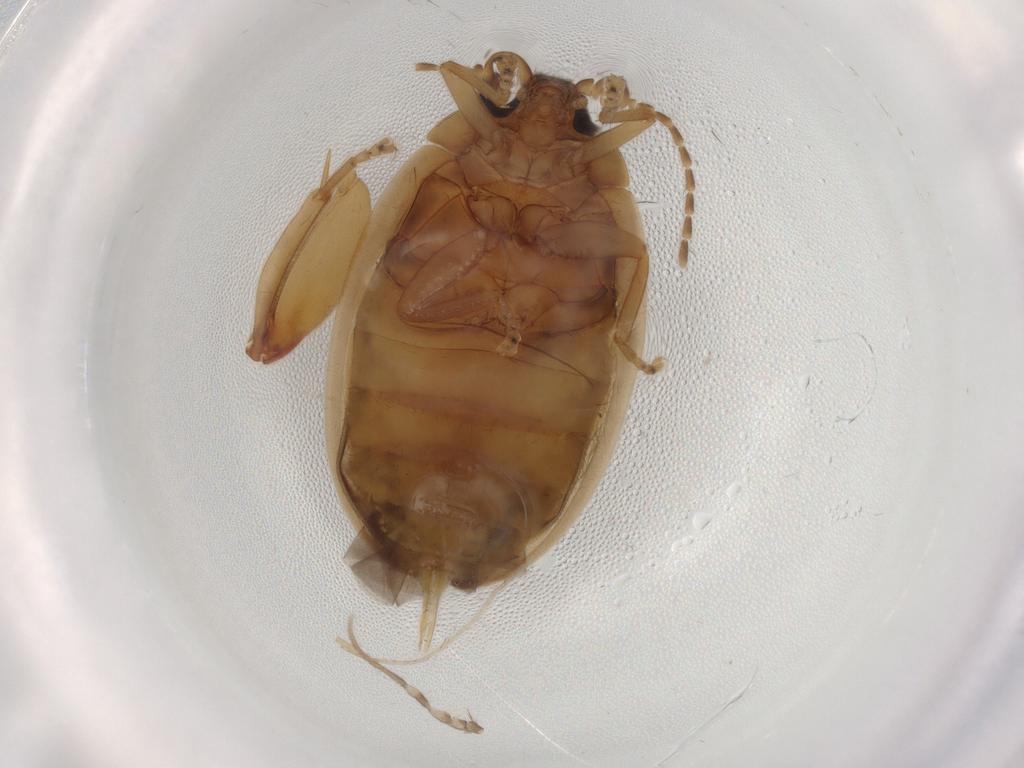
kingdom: Animalia
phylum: Arthropoda
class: Insecta
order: Coleoptera
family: Scirtidae
